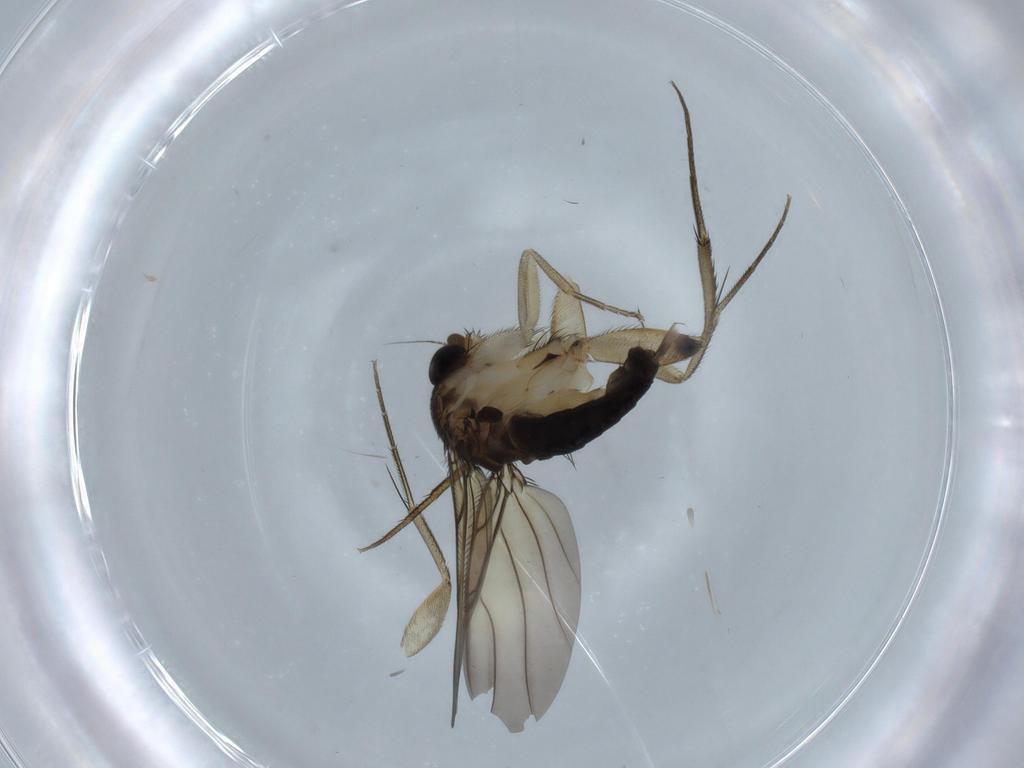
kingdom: Animalia
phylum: Arthropoda
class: Insecta
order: Diptera
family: Phoridae
